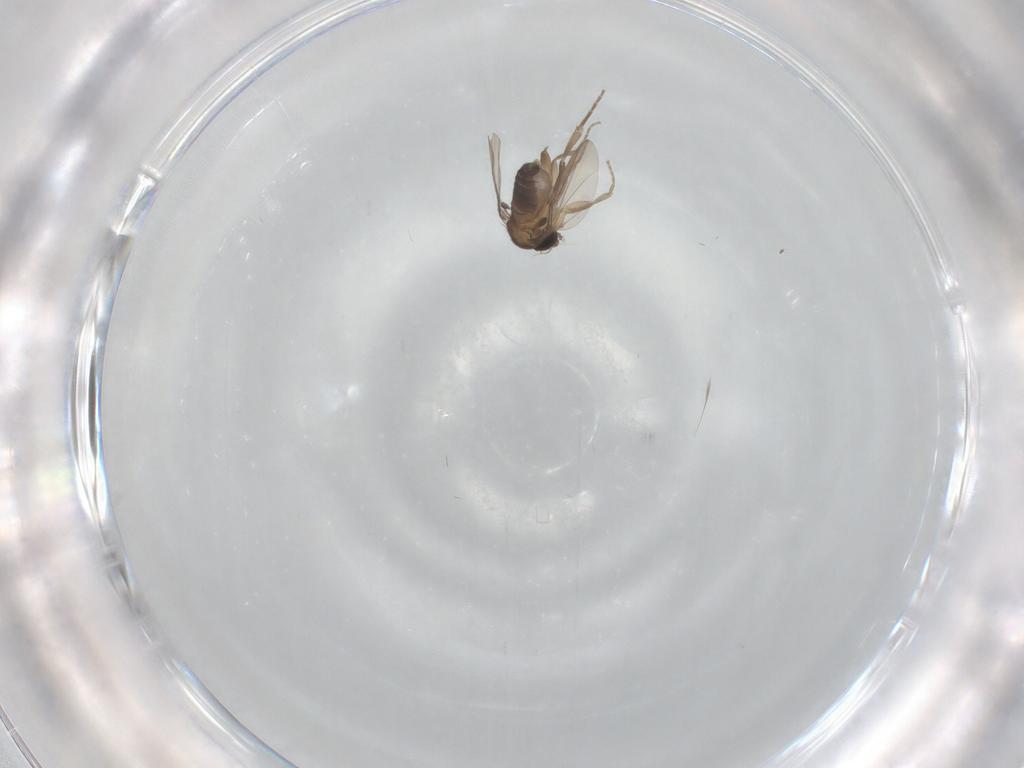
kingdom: Animalia
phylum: Arthropoda
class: Insecta
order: Diptera
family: Phoridae
